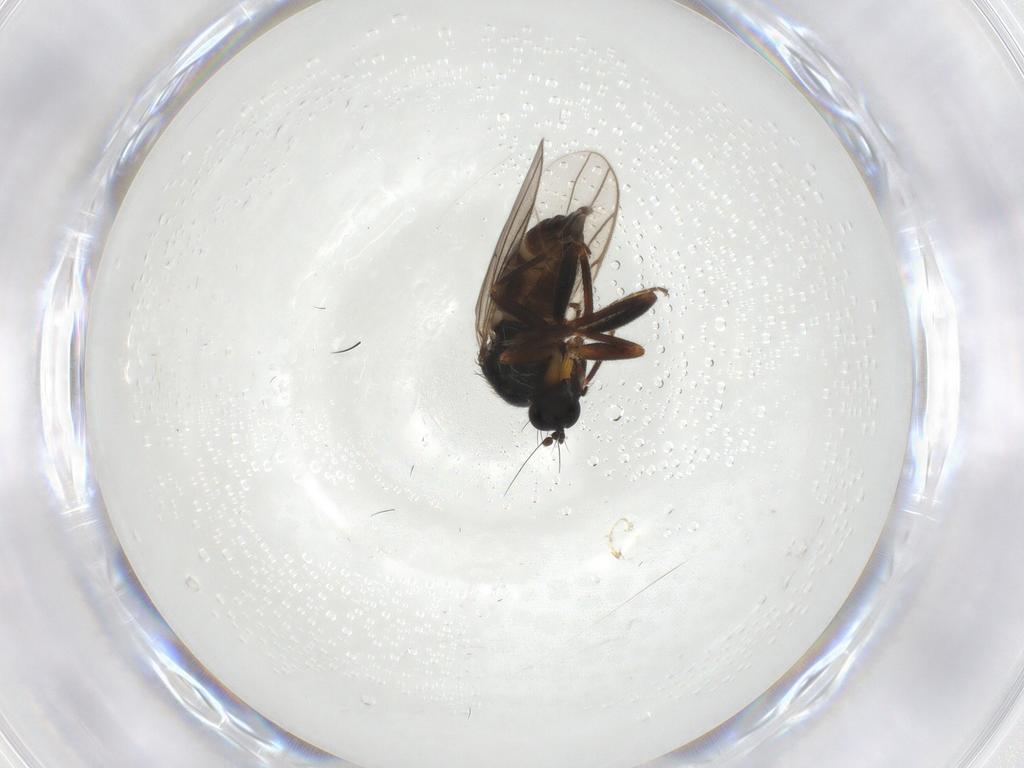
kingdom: Animalia
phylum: Arthropoda
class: Insecta
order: Diptera
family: Hybotidae
